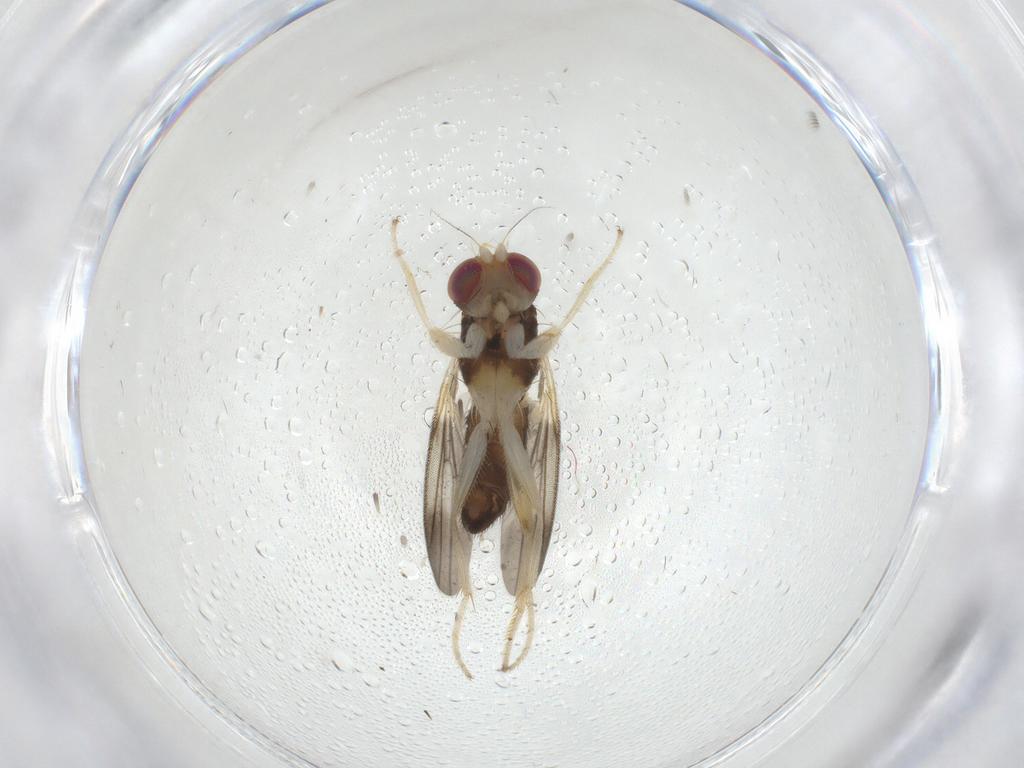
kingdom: Animalia
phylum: Arthropoda
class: Insecta
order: Diptera
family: Clusiidae
